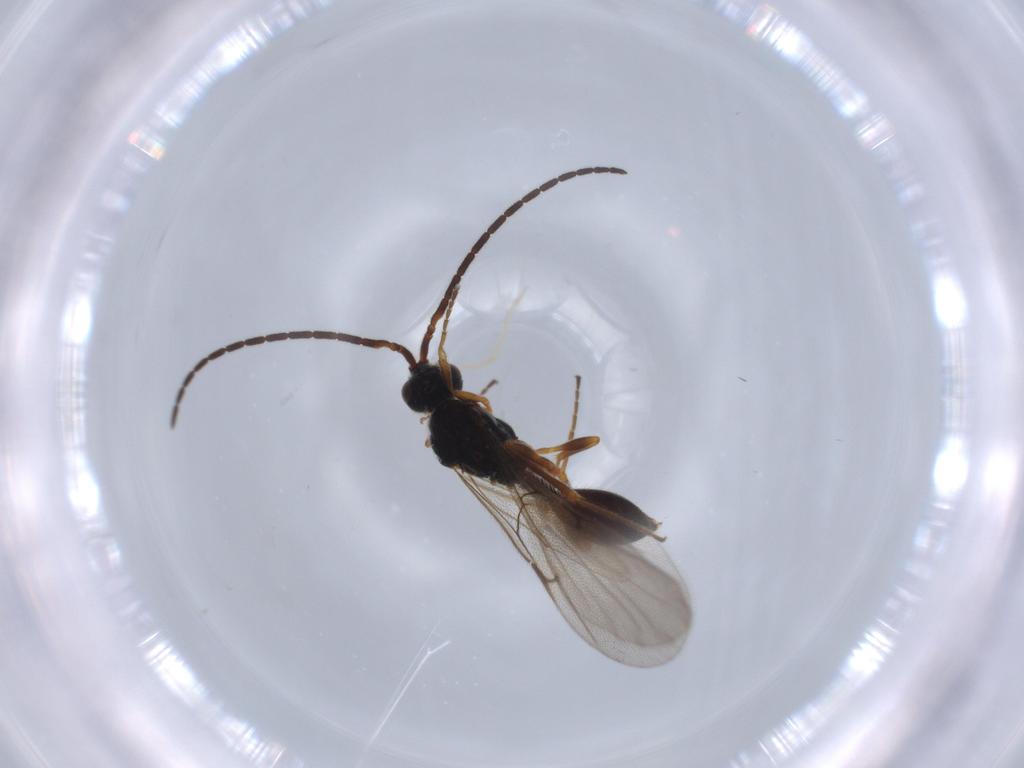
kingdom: Animalia
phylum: Arthropoda
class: Insecta
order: Hymenoptera
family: Diapriidae
